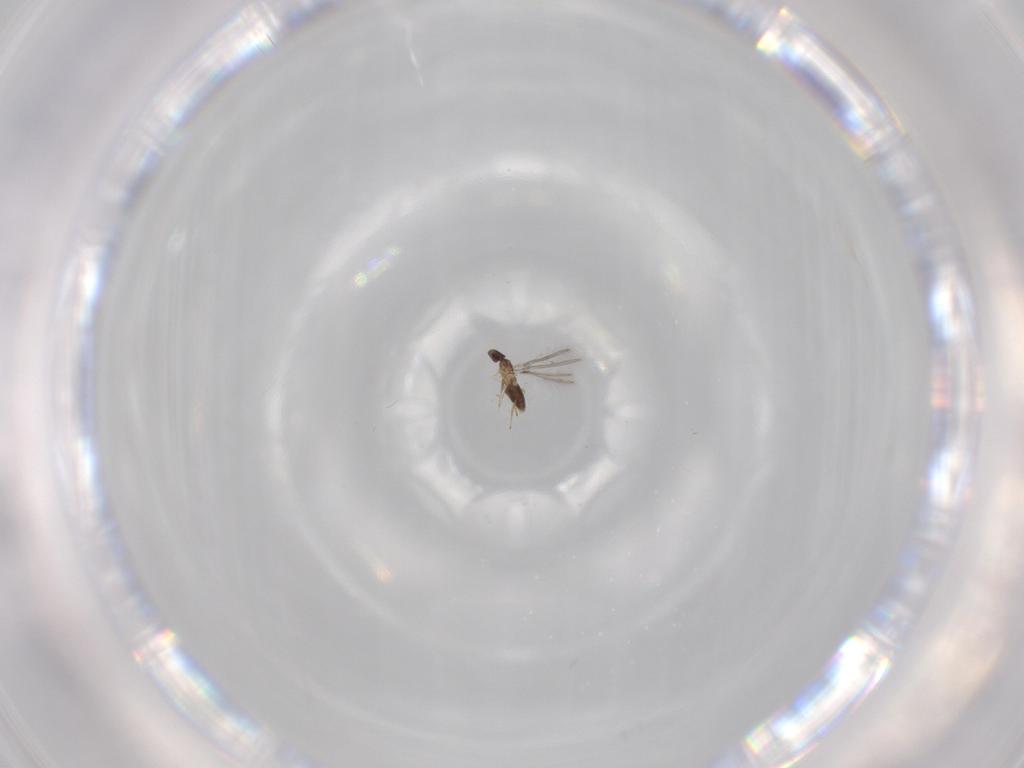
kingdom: Animalia
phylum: Arthropoda
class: Insecta
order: Hymenoptera
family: Mymaridae
